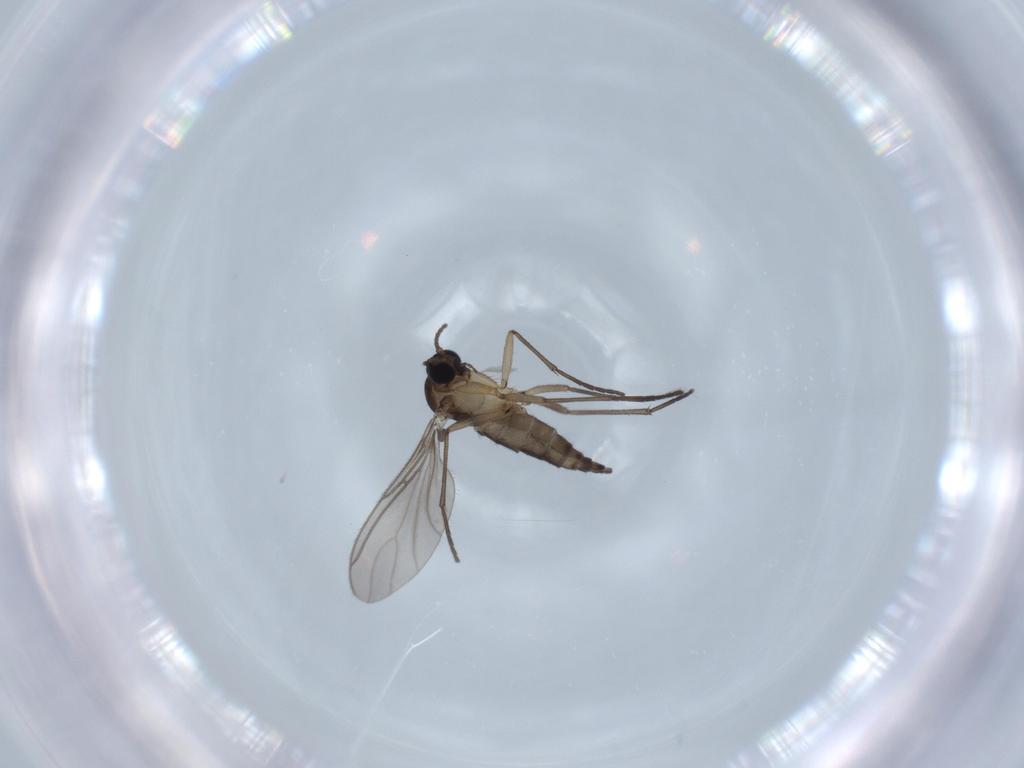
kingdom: Animalia
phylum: Arthropoda
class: Insecta
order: Diptera
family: Sciaridae
